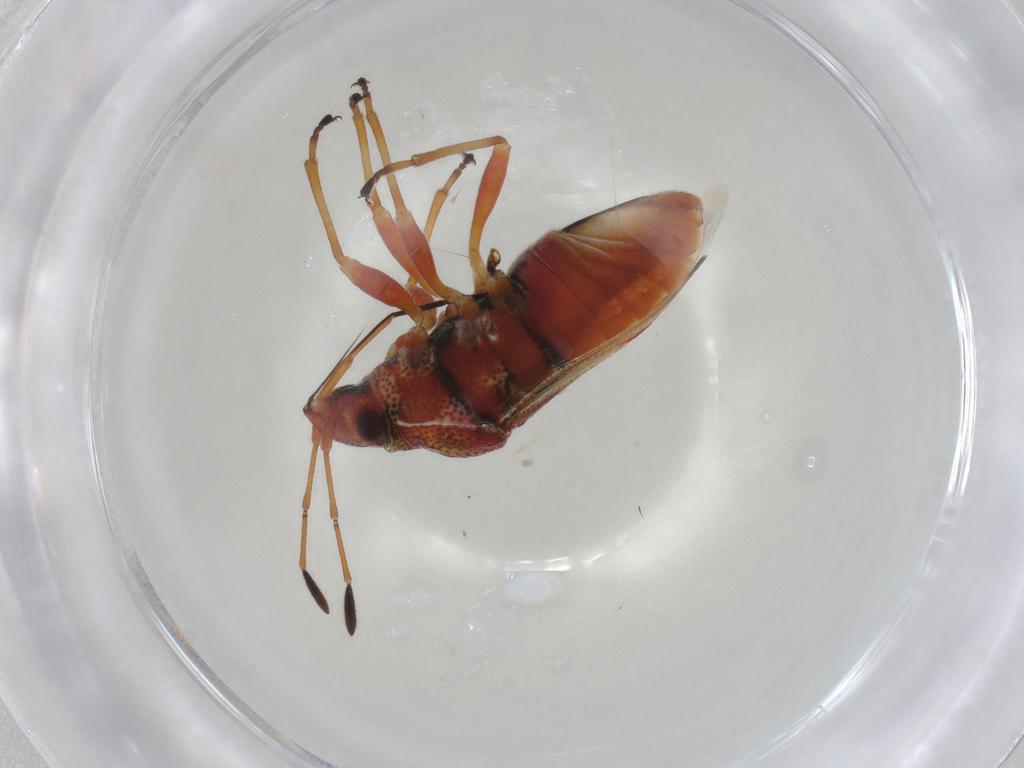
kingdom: Animalia
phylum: Arthropoda
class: Insecta
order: Hemiptera
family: Lygaeidae
